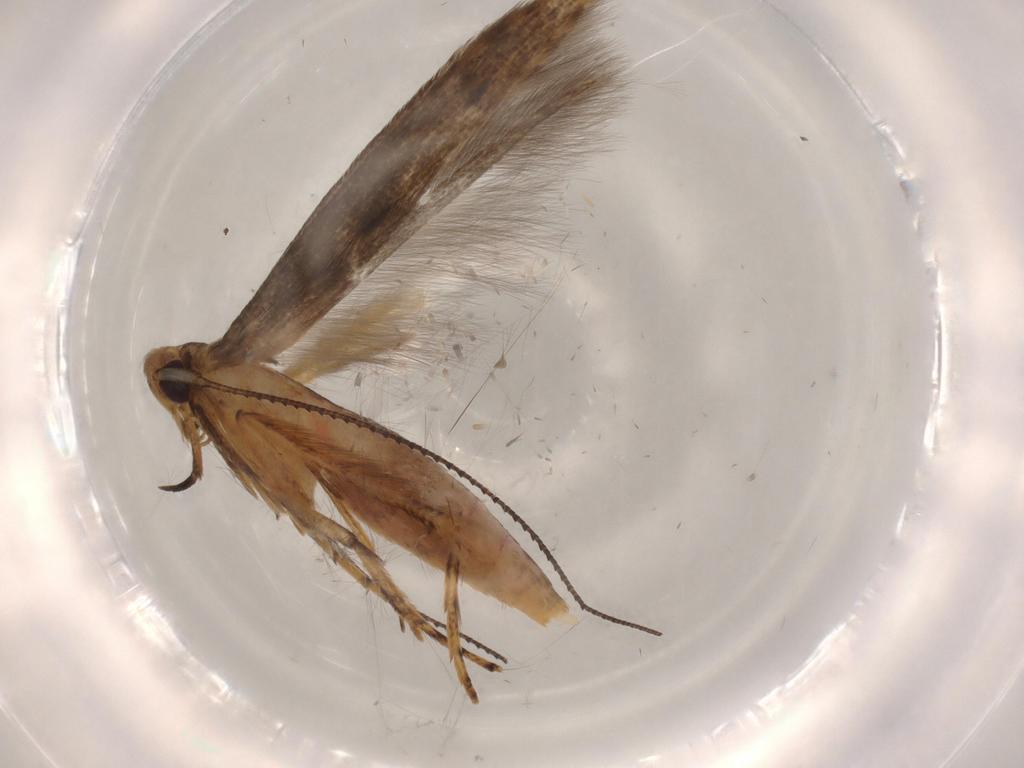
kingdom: Animalia
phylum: Arthropoda
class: Insecta
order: Lepidoptera
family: Heliodinidae
